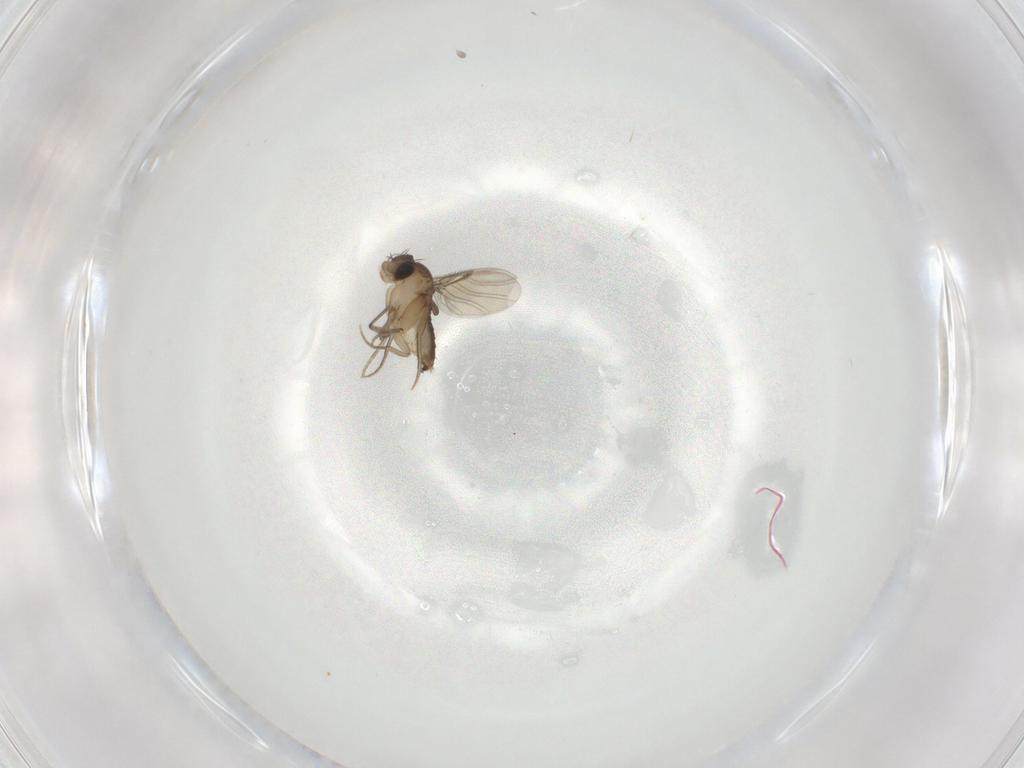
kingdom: Animalia
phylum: Arthropoda
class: Insecta
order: Diptera
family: Phoridae
